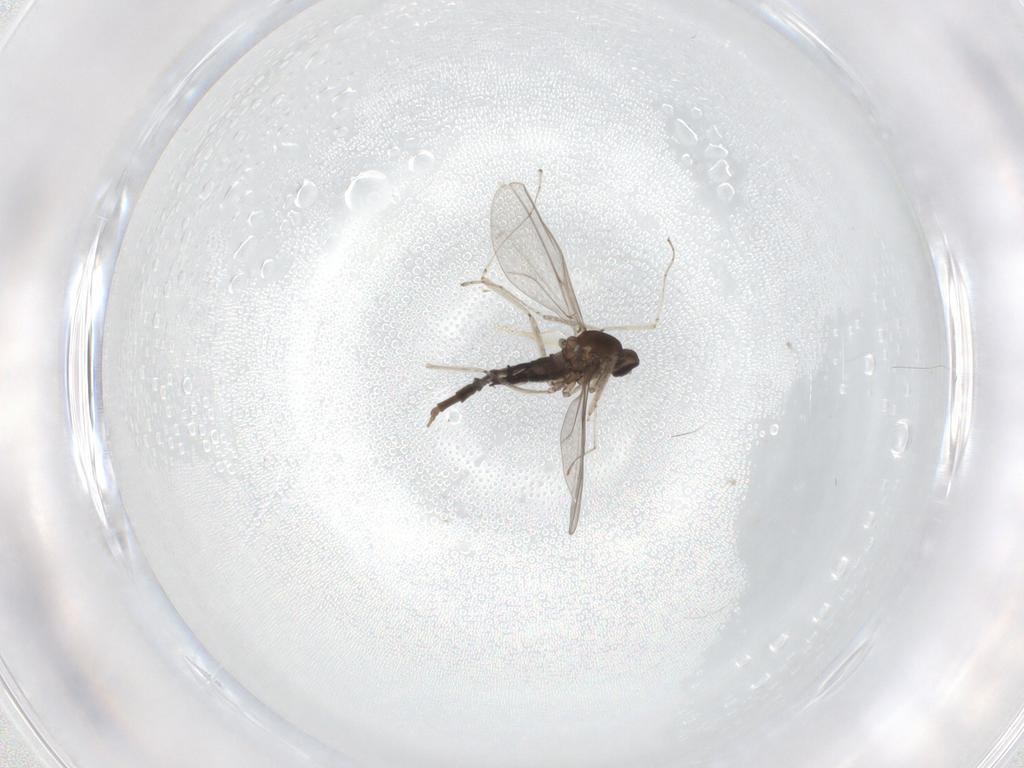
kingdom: Animalia
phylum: Arthropoda
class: Insecta
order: Diptera
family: Cecidomyiidae
